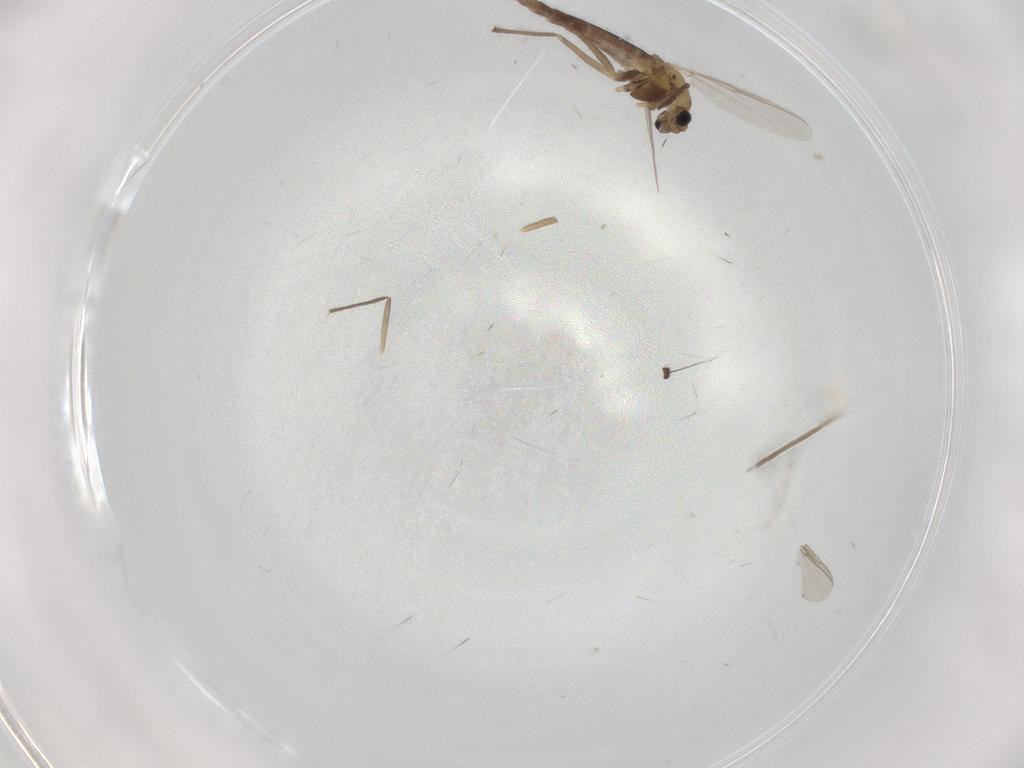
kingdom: Animalia
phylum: Arthropoda
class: Insecta
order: Diptera
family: Chironomidae
